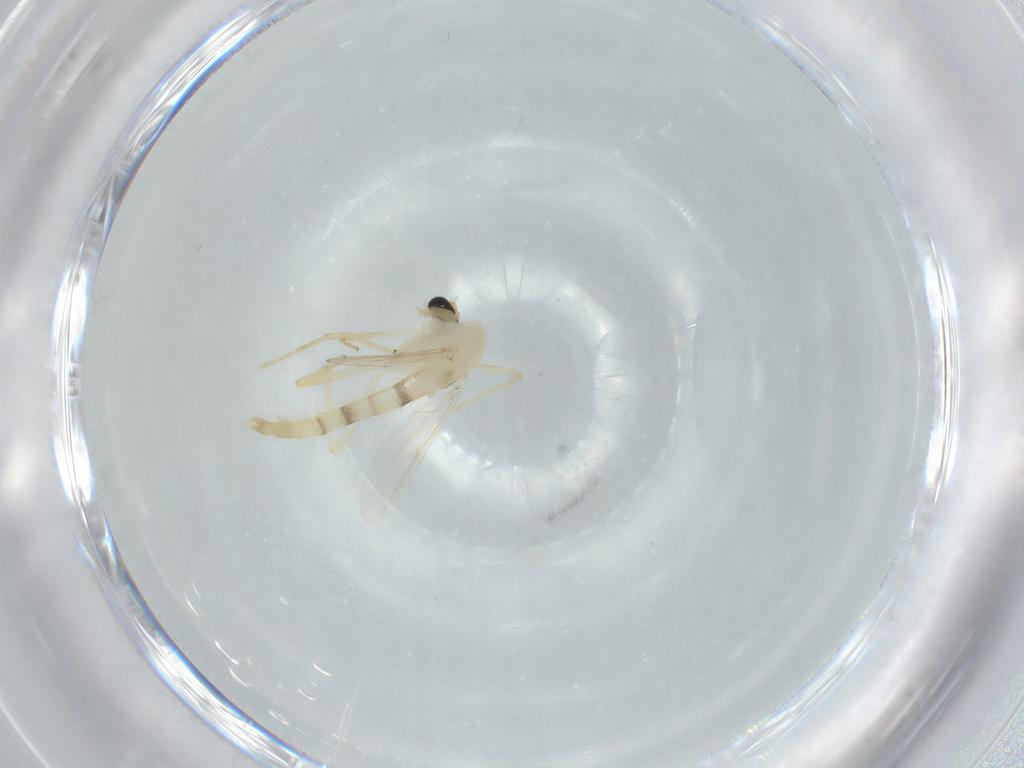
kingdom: Animalia
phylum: Arthropoda
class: Insecta
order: Diptera
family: Chironomidae
